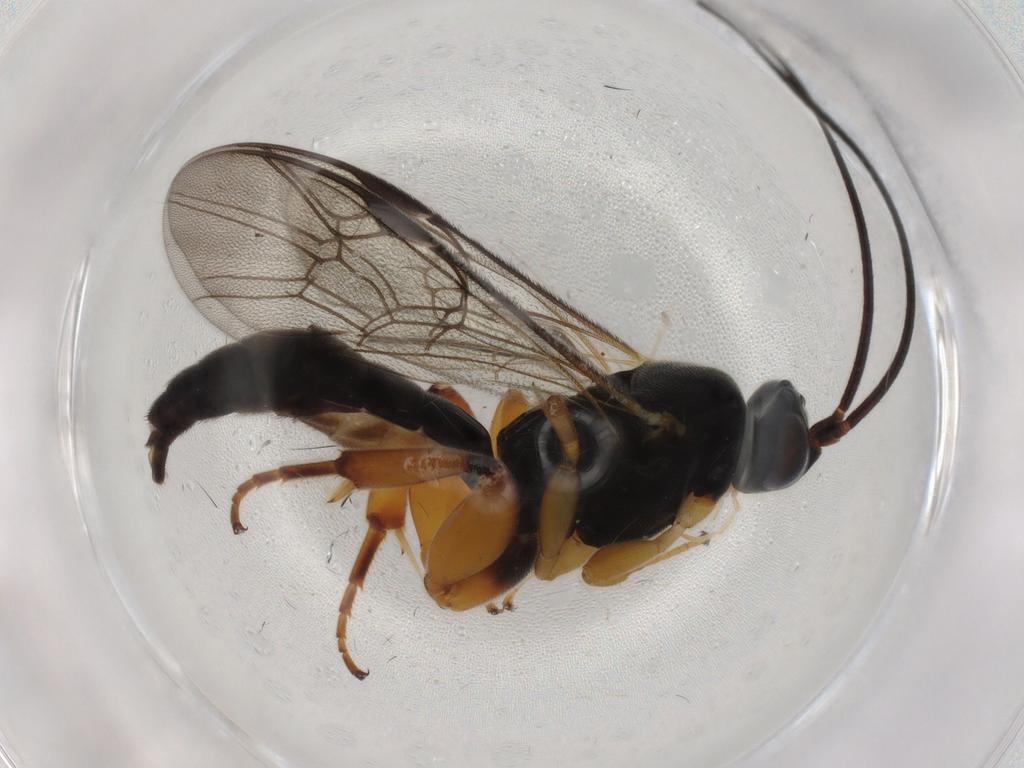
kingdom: Animalia
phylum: Arthropoda
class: Insecta
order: Hymenoptera
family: Ichneumonidae
